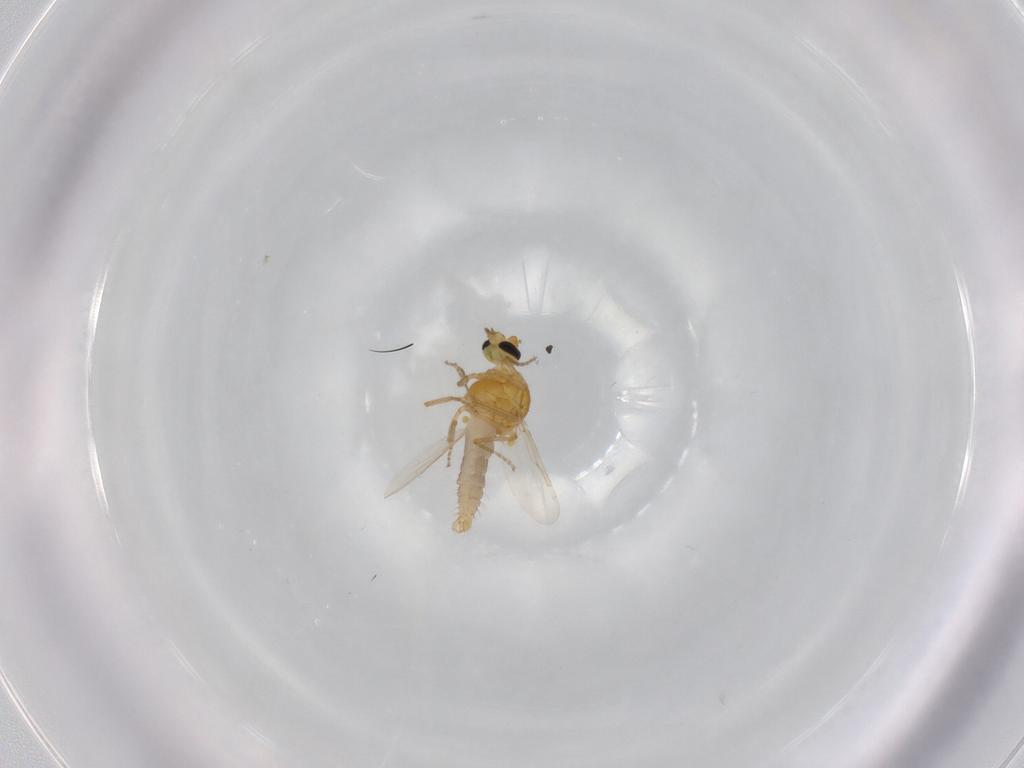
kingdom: Animalia
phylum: Arthropoda
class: Insecta
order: Diptera
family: Ceratopogonidae
